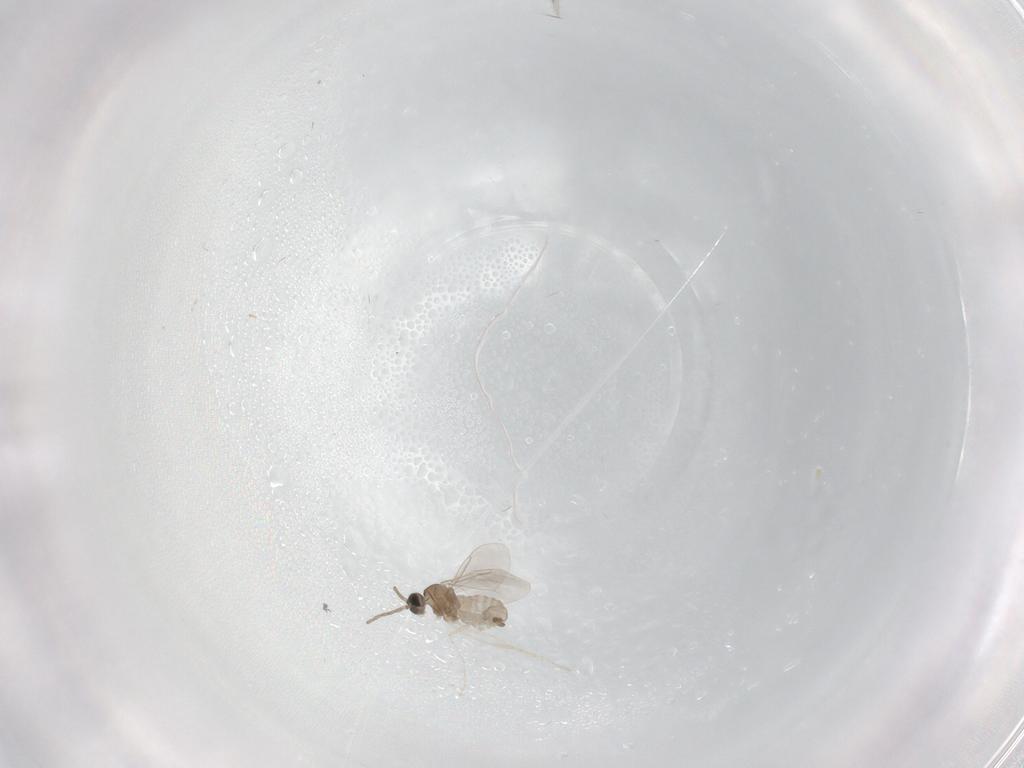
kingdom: Animalia
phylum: Arthropoda
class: Insecta
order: Diptera
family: Cecidomyiidae
